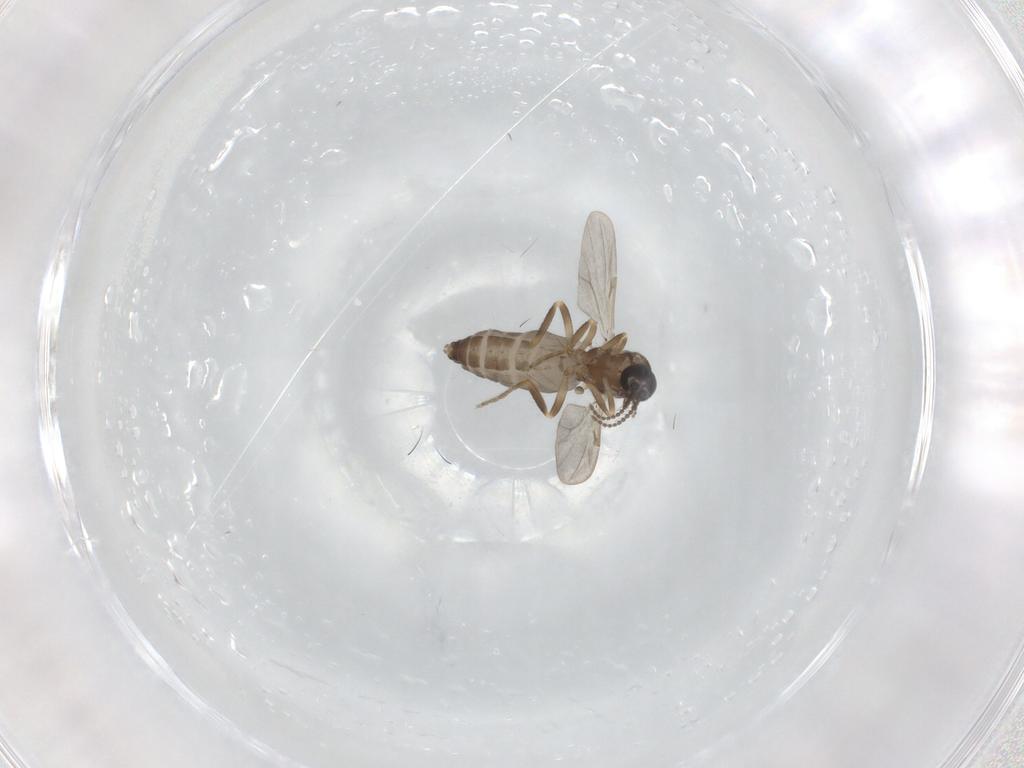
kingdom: Animalia
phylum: Arthropoda
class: Insecta
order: Diptera
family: Ceratopogonidae
